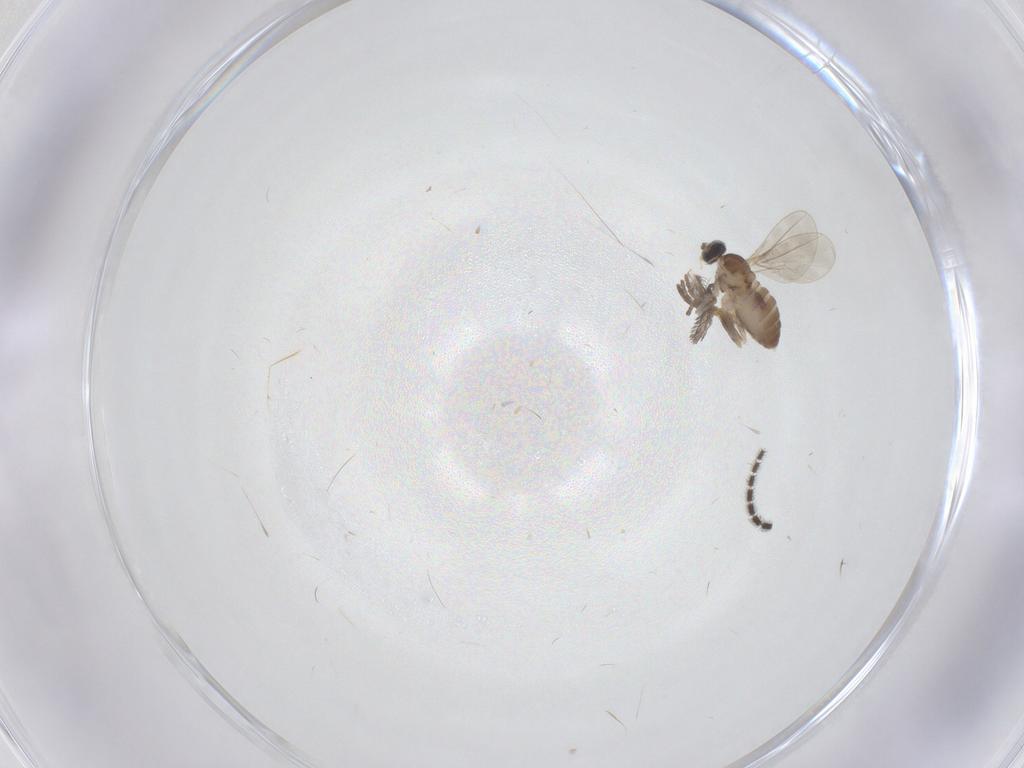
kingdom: Animalia
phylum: Arthropoda
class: Insecta
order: Diptera
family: Sciaridae
